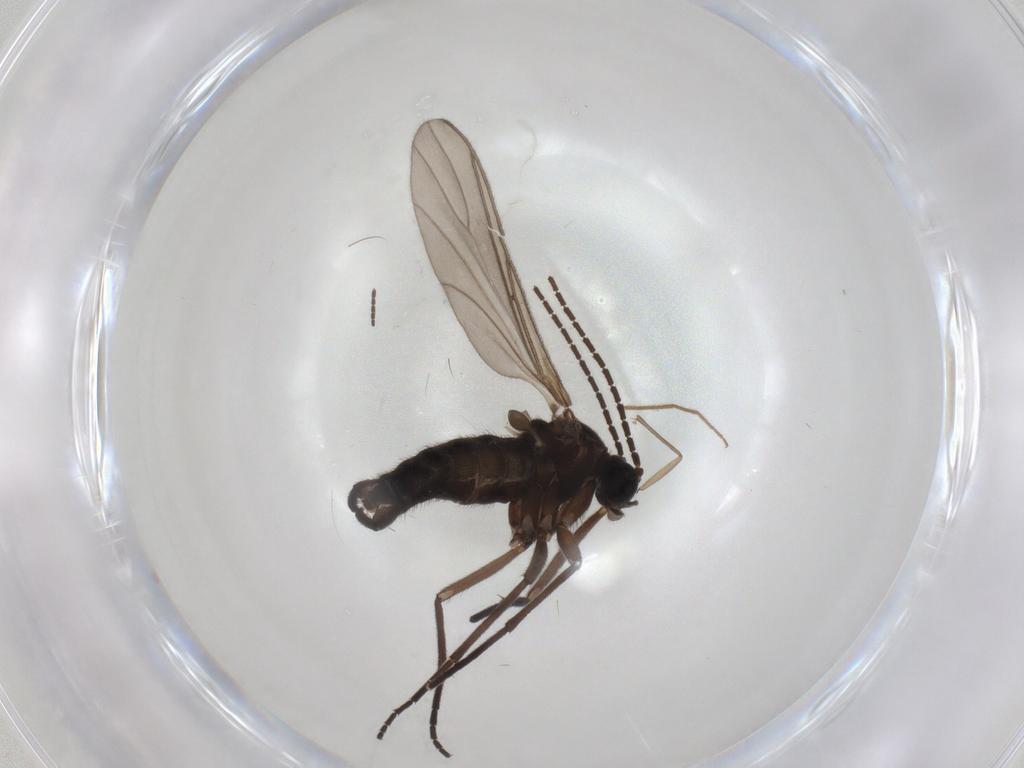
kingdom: Animalia
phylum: Arthropoda
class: Insecta
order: Diptera
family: Sciaridae
